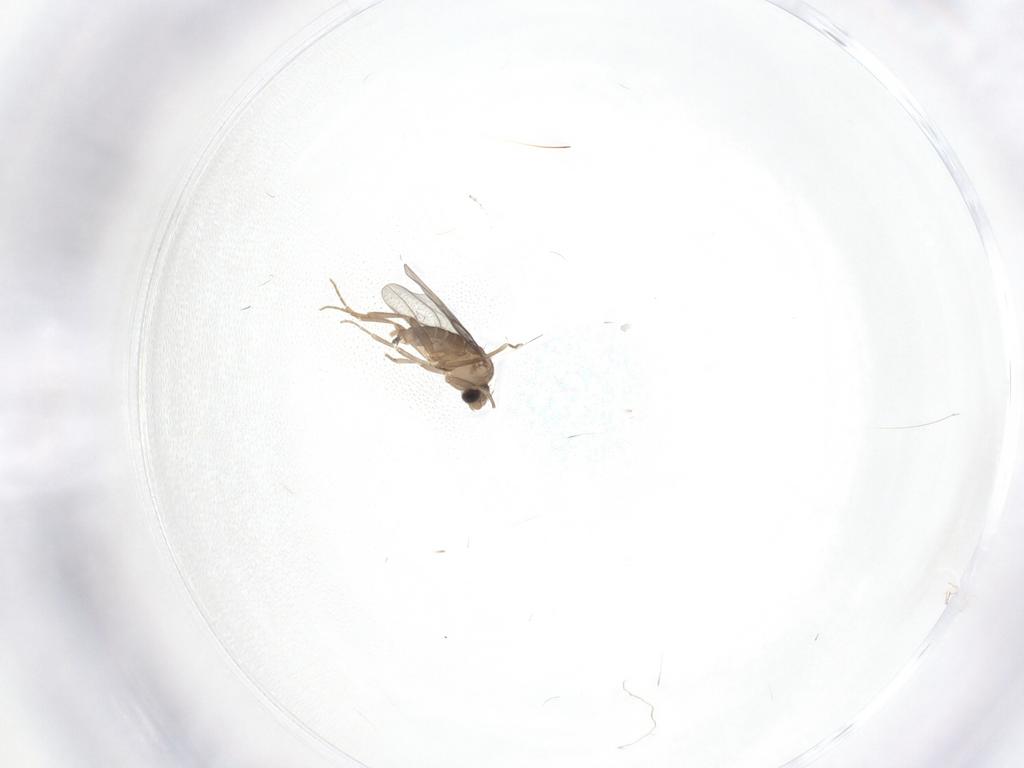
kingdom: Animalia
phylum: Arthropoda
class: Insecta
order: Diptera
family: Chironomidae
